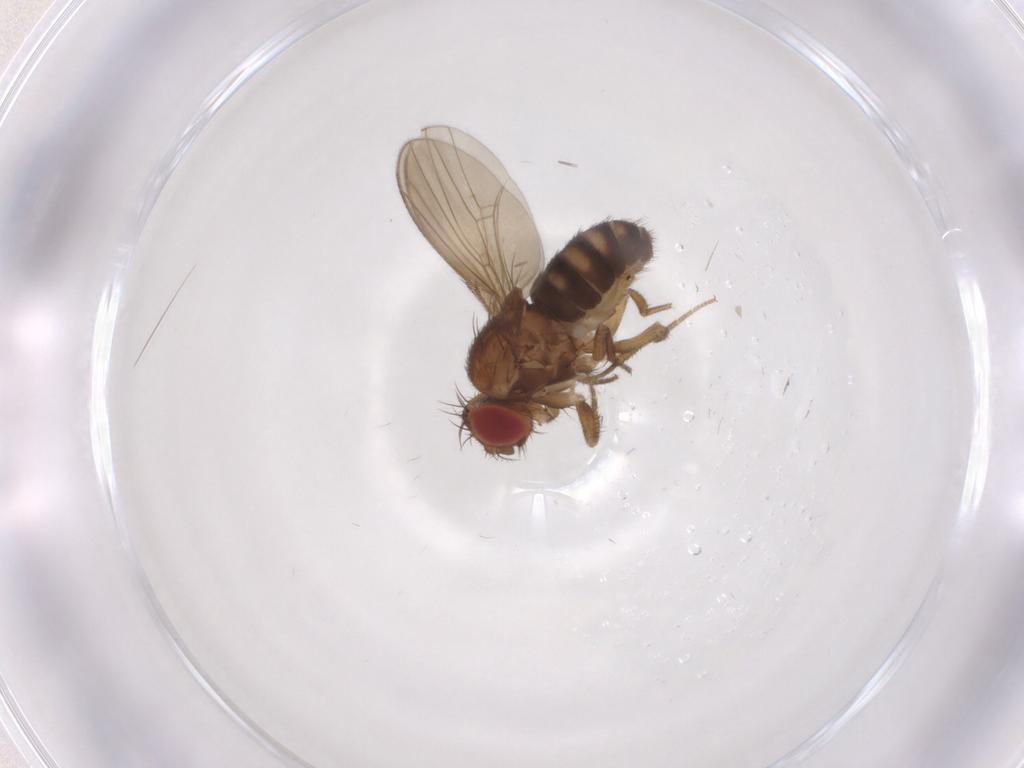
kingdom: Animalia
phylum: Arthropoda
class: Insecta
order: Diptera
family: Drosophilidae
